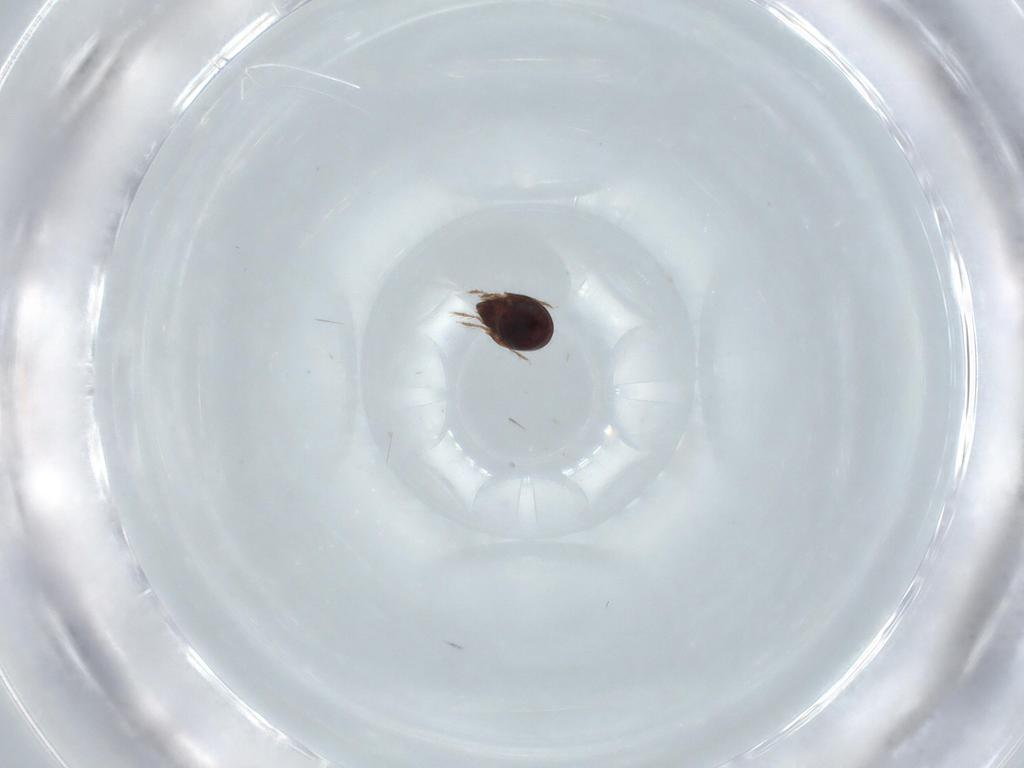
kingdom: Animalia
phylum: Arthropoda
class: Arachnida
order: Sarcoptiformes
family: Ceratozetidae
